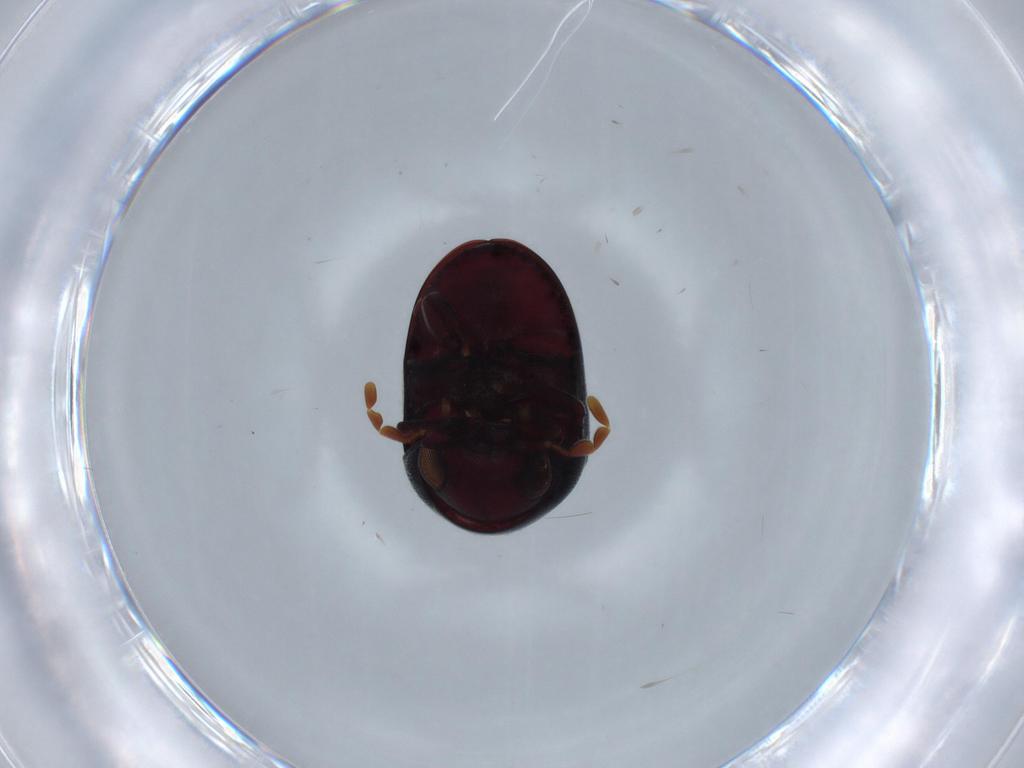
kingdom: Animalia
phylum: Arthropoda
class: Insecta
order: Coleoptera
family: Ptinidae
